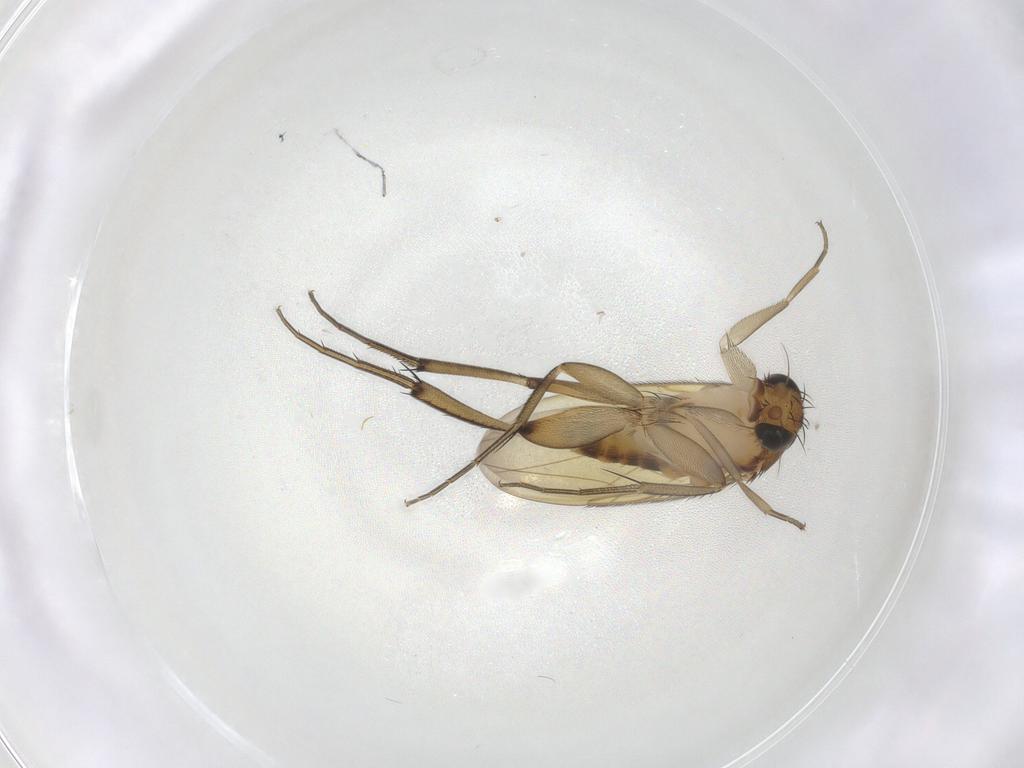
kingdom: Animalia
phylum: Arthropoda
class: Insecta
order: Diptera
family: Phoridae
